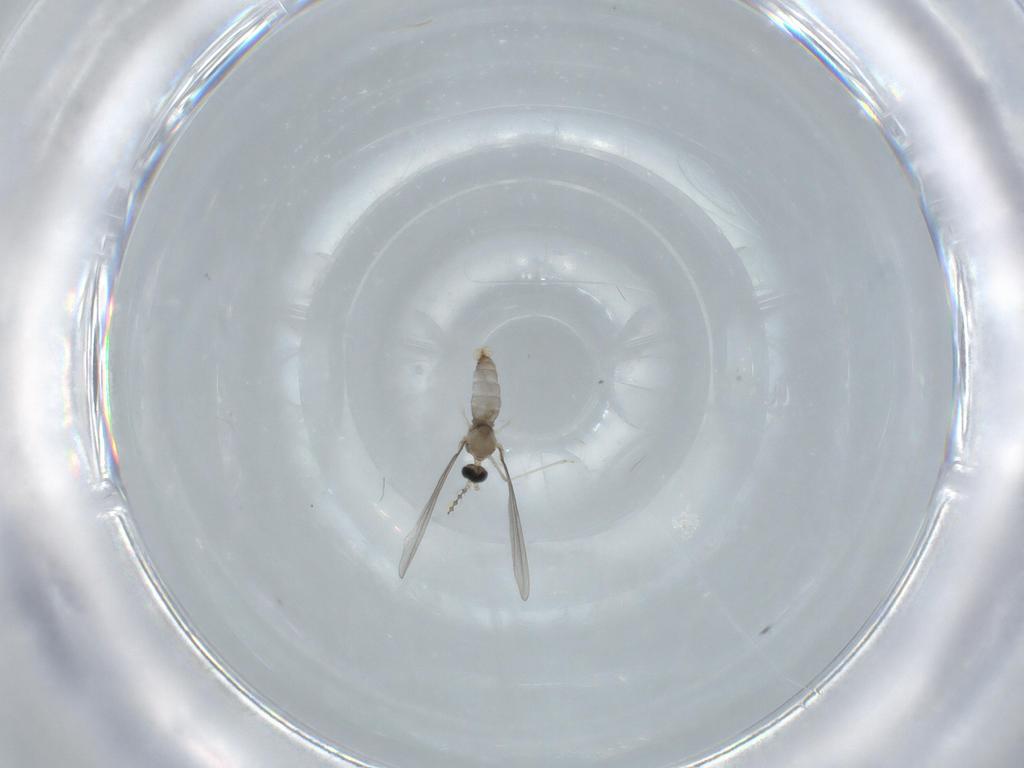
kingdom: Animalia
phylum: Arthropoda
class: Insecta
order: Diptera
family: Cecidomyiidae
